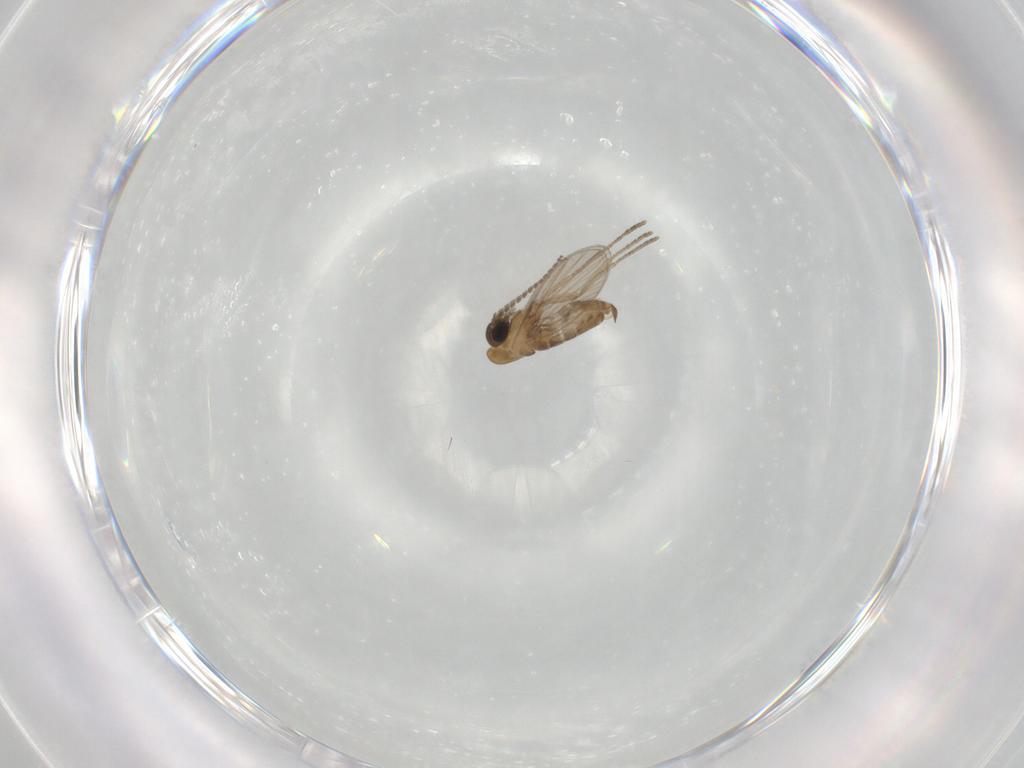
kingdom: Animalia
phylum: Arthropoda
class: Insecta
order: Diptera
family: Psychodidae
